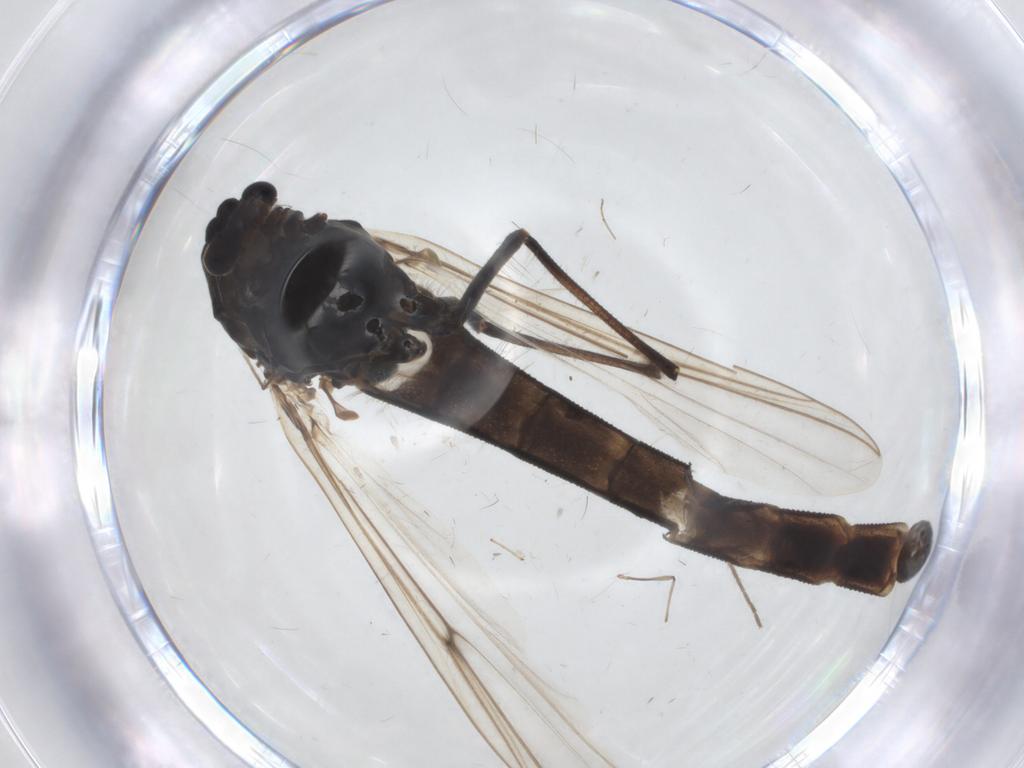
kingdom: Animalia
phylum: Arthropoda
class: Insecta
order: Diptera
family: Chironomidae
